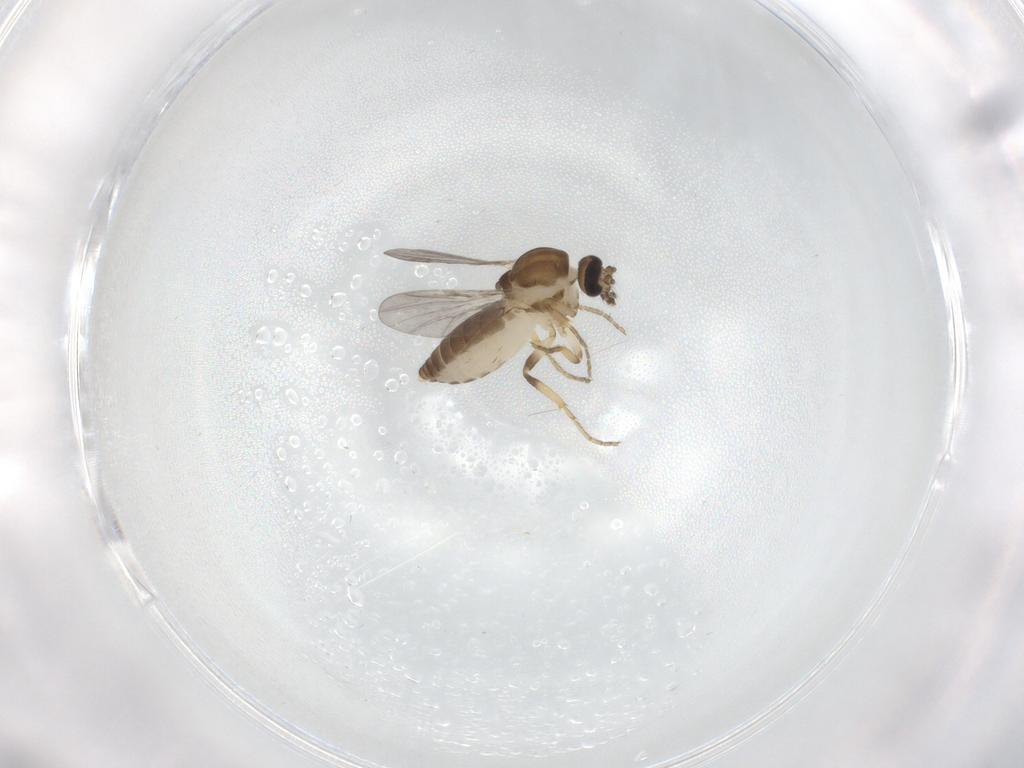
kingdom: Animalia
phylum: Arthropoda
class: Insecta
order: Diptera
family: Ceratopogonidae
